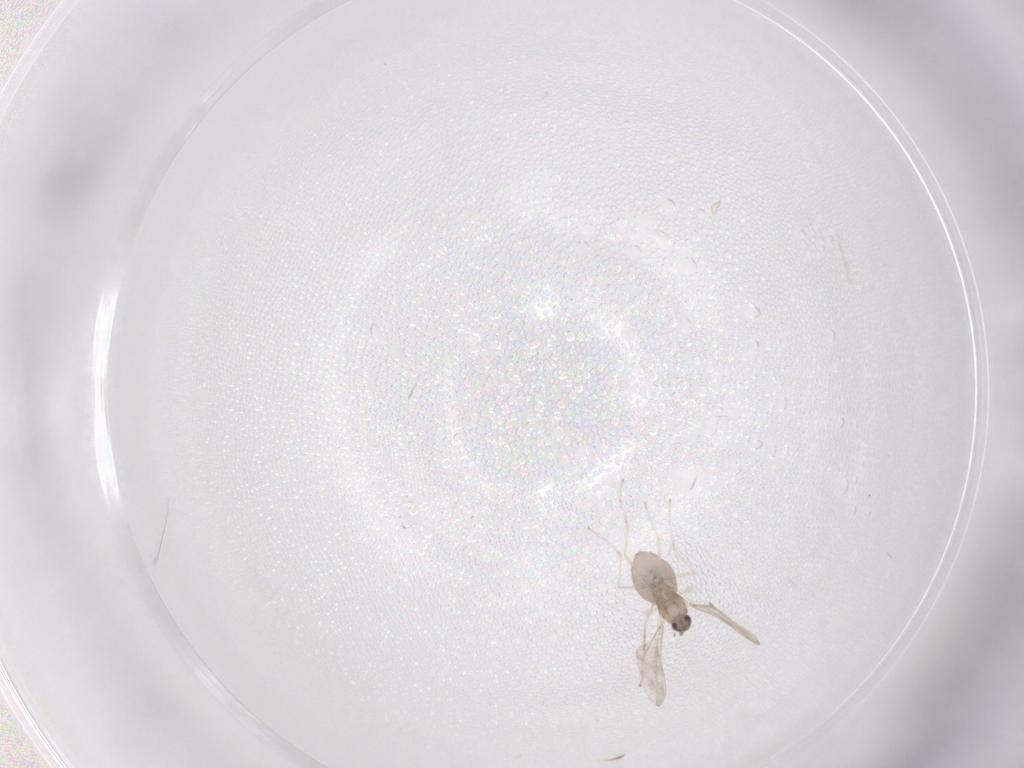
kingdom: Animalia
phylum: Arthropoda
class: Insecta
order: Diptera
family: Cecidomyiidae
